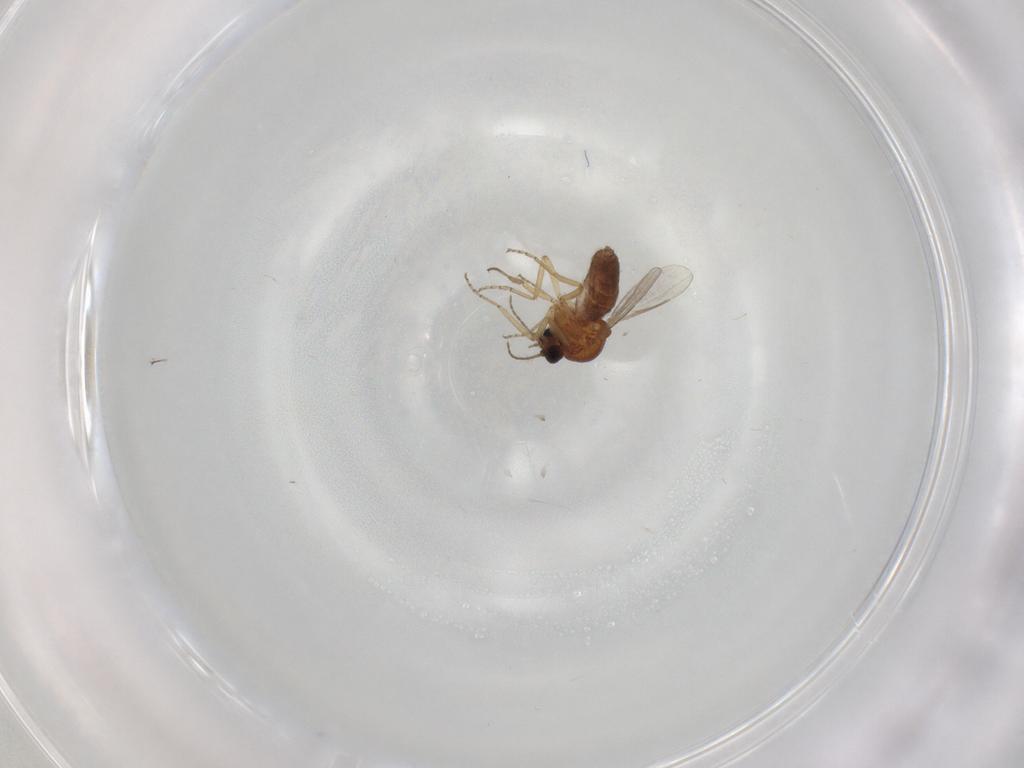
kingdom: Animalia
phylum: Arthropoda
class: Insecta
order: Diptera
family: Ceratopogonidae
